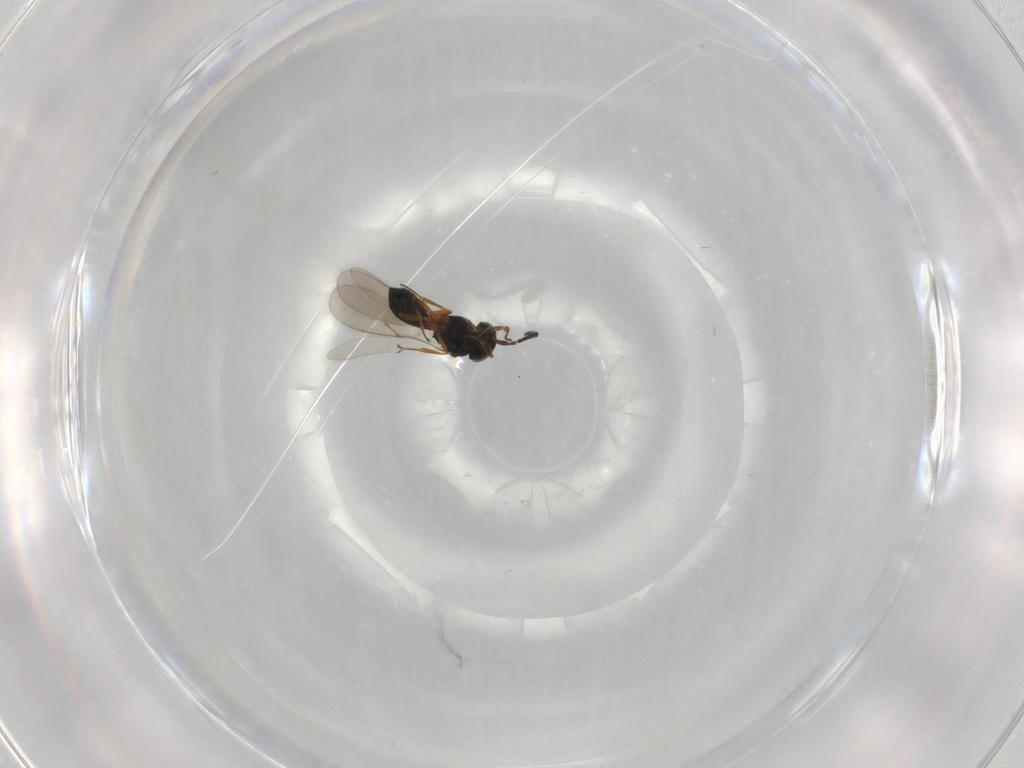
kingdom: Animalia
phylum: Arthropoda
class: Insecta
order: Hymenoptera
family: Scelionidae
